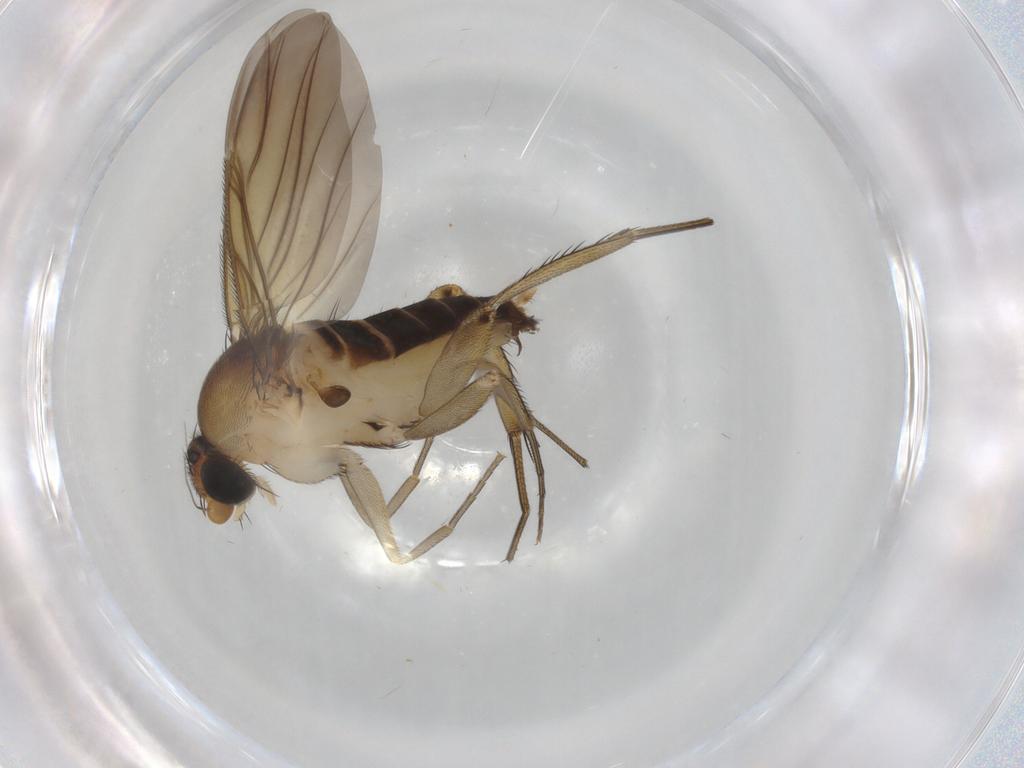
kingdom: Animalia
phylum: Arthropoda
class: Insecta
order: Diptera
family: Phoridae
